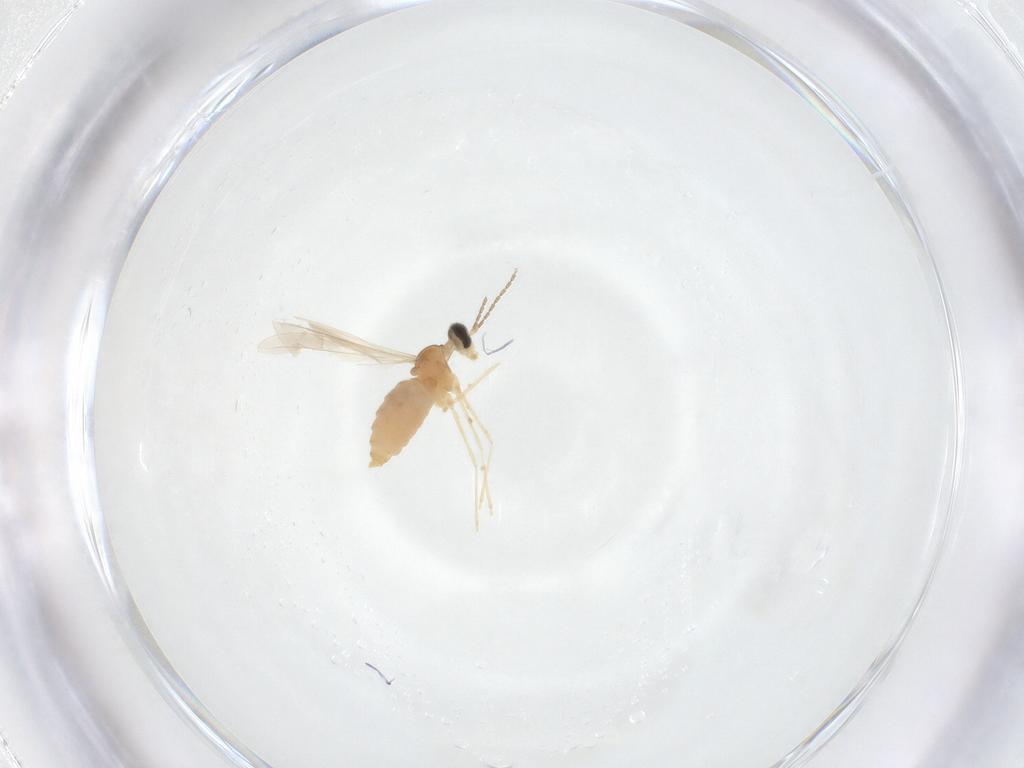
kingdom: Animalia
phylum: Arthropoda
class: Insecta
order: Diptera
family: Cecidomyiidae
